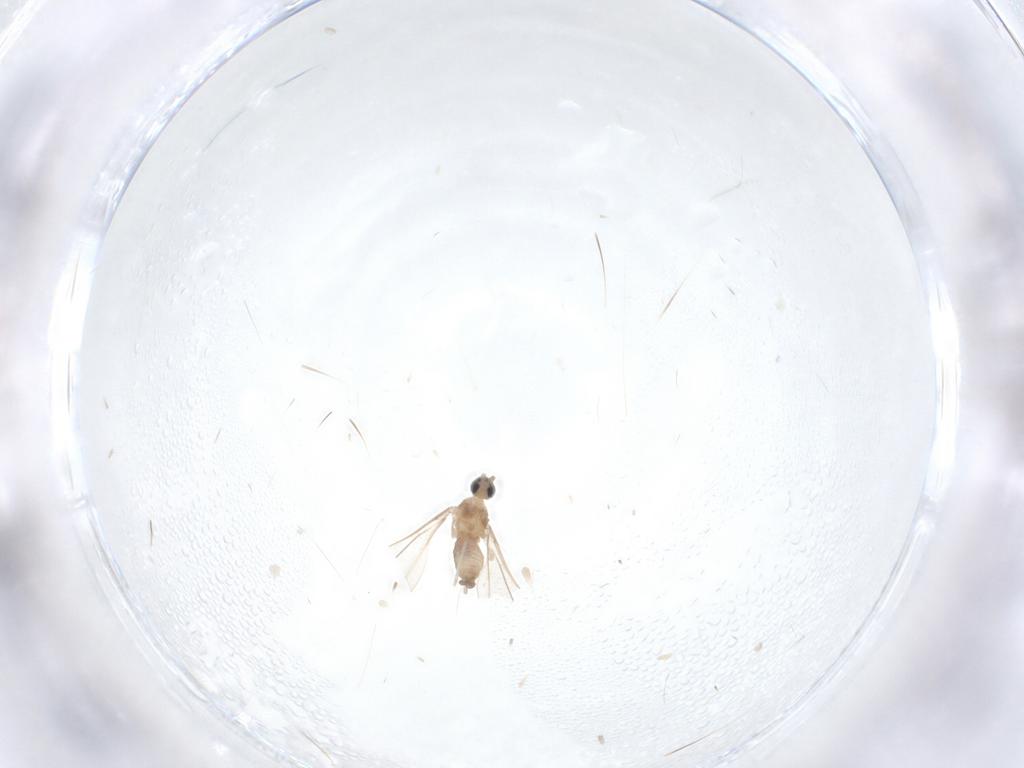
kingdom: Animalia
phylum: Arthropoda
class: Insecta
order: Diptera
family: Cecidomyiidae
